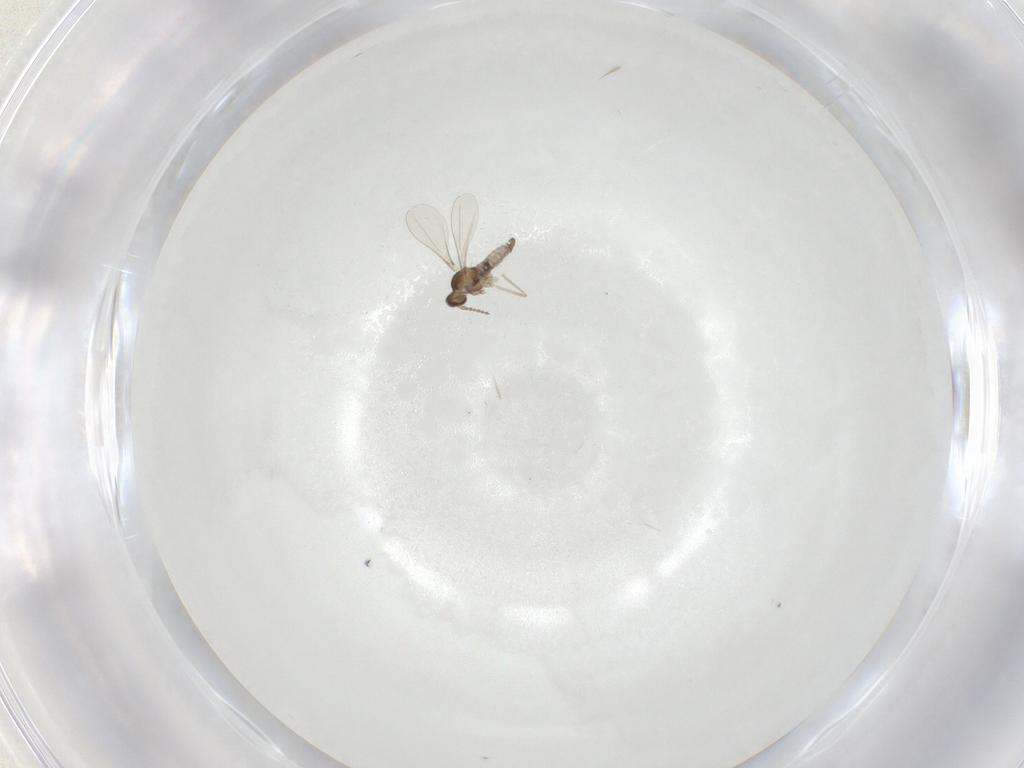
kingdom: Animalia
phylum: Arthropoda
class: Insecta
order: Diptera
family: Cecidomyiidae
